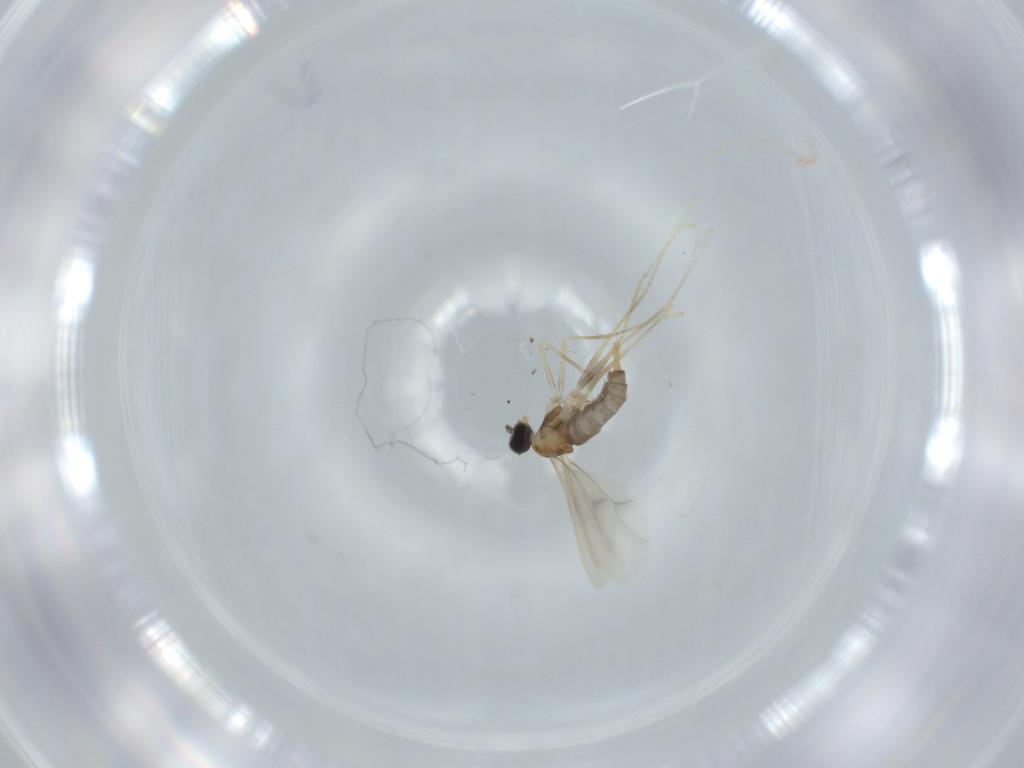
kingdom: Animalia
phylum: Arthropoda
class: Insecta
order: Diptera
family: Cecidomyiidae
